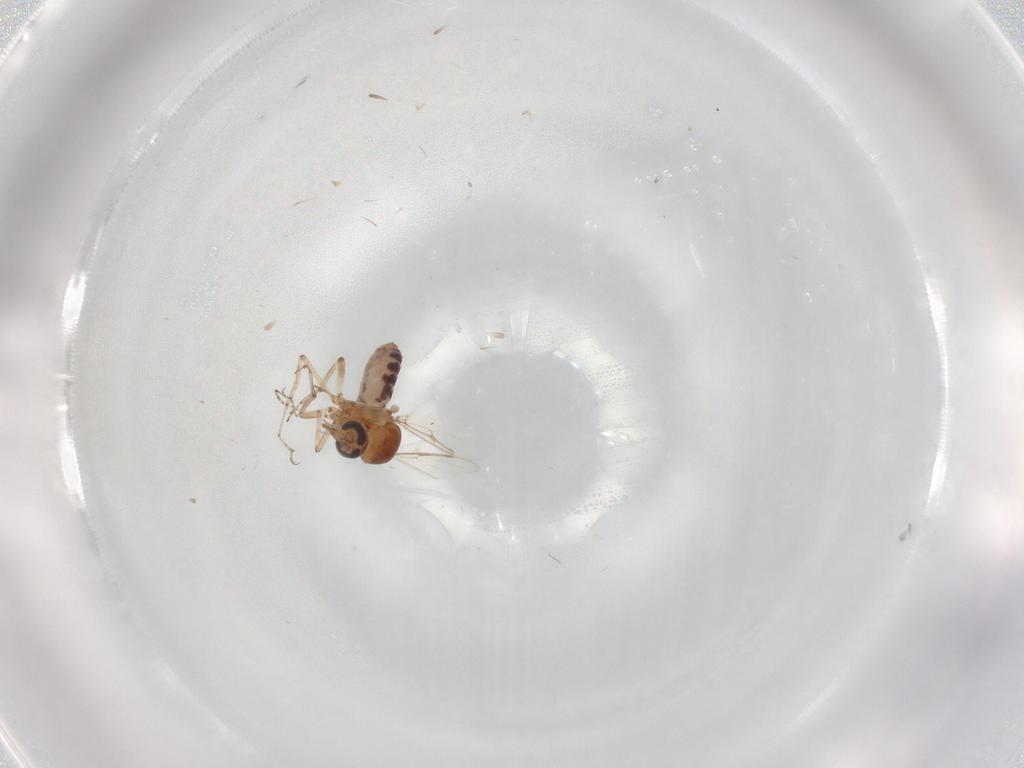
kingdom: Animalia
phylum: Arthropoda
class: Insecta
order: Diptera
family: Ceratopogonidae
